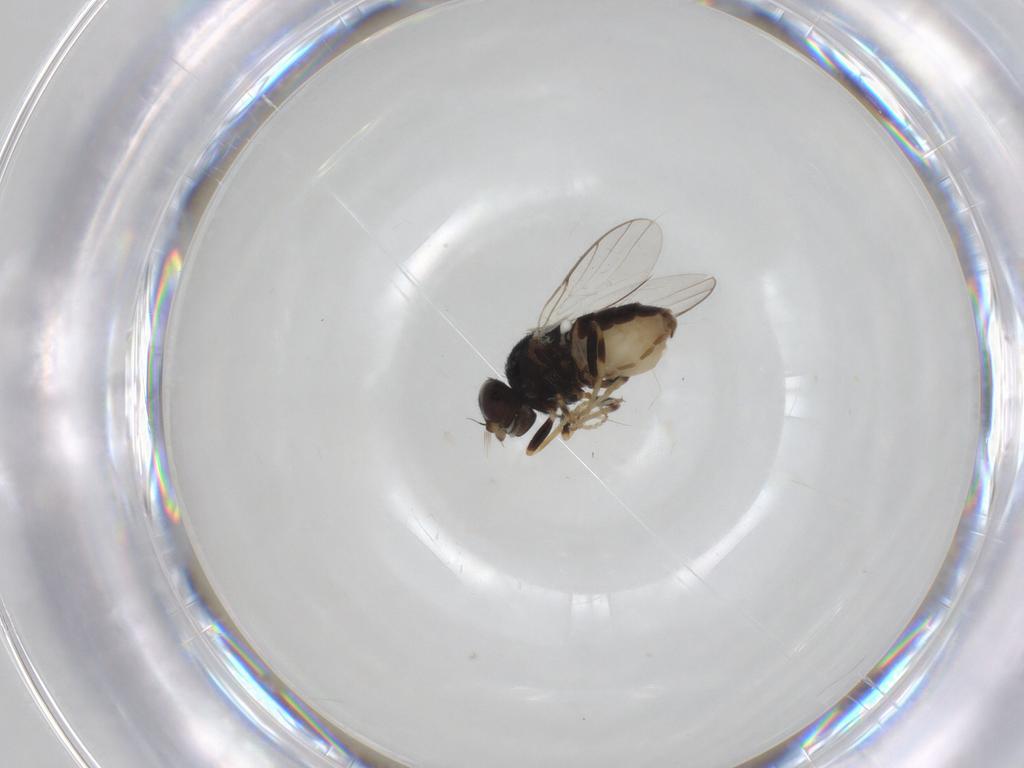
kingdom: Animalia
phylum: Arthropoda
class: Insecta
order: Diptera
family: Chloropidae
